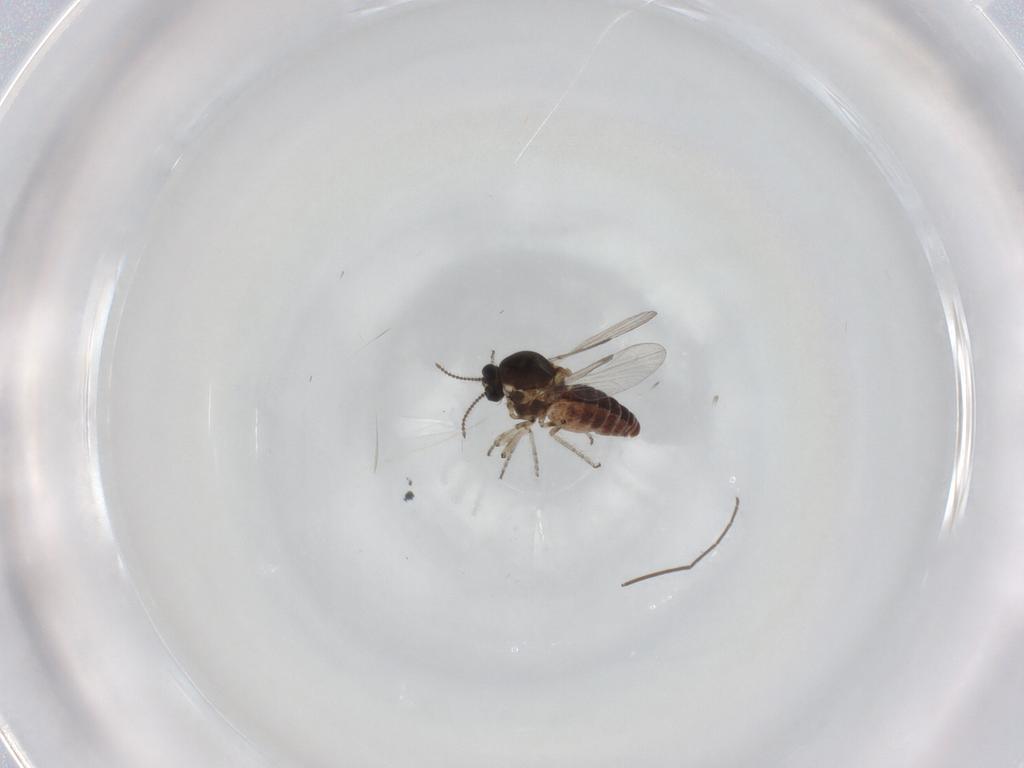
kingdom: Animalia
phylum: Arthropoda
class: Insecta
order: Diptera
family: Ceratopogonidae
